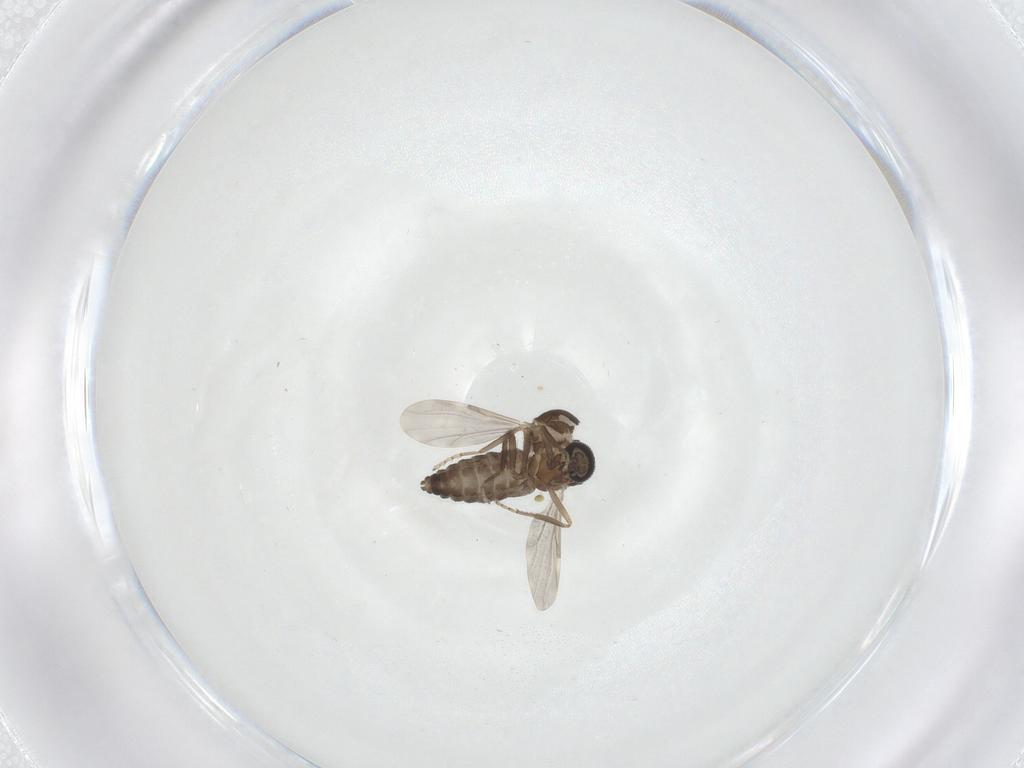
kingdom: Animalia
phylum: Arthropoda
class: Insecta
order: Diptera
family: Ceratopogonidae
